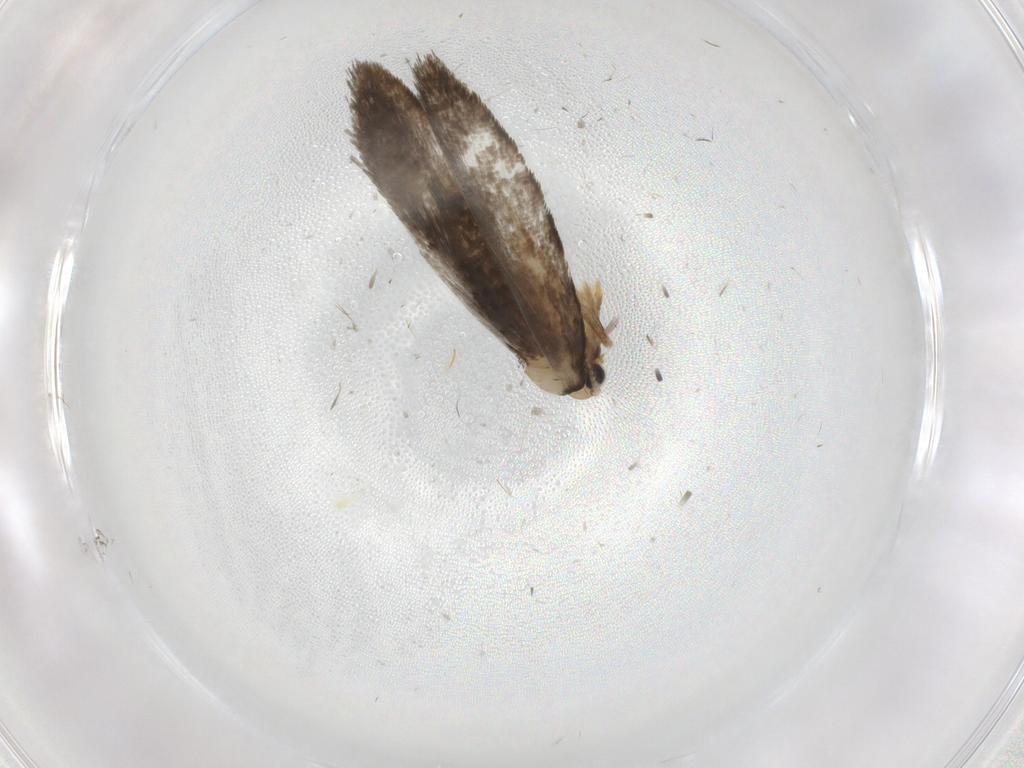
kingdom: Animalia
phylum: Arthropoda
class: Insecta
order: Lepidoptera
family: Psychidae
